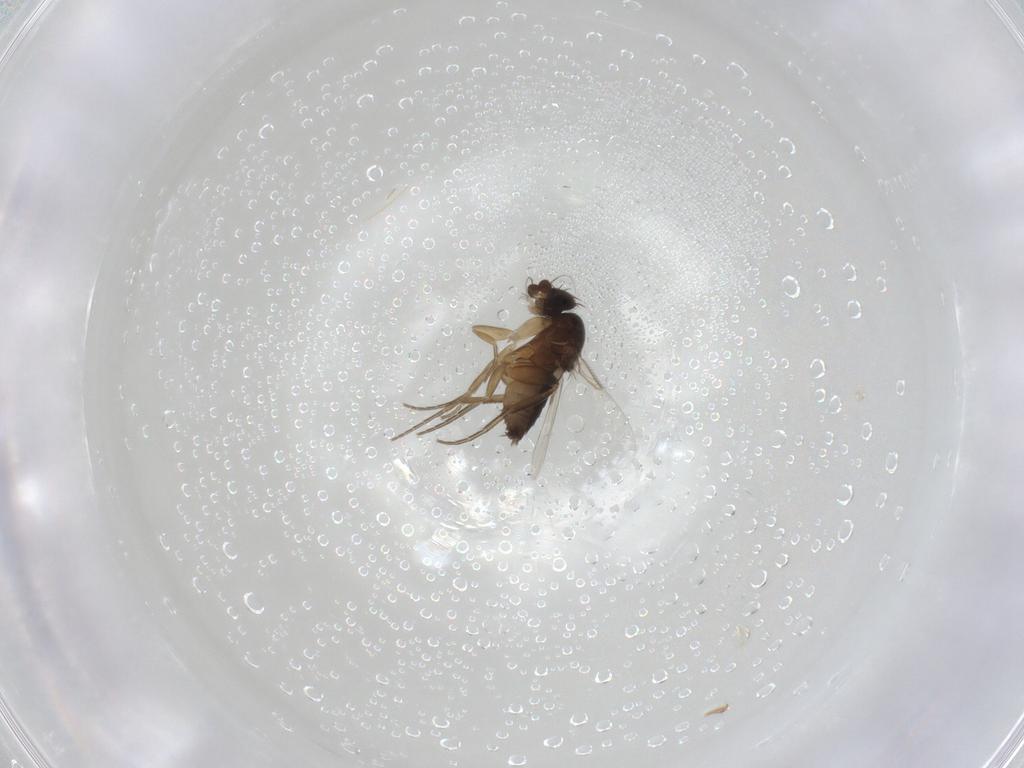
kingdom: Animalia
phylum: Arthropoda
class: Insecta
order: Diptera
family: Phoridae
